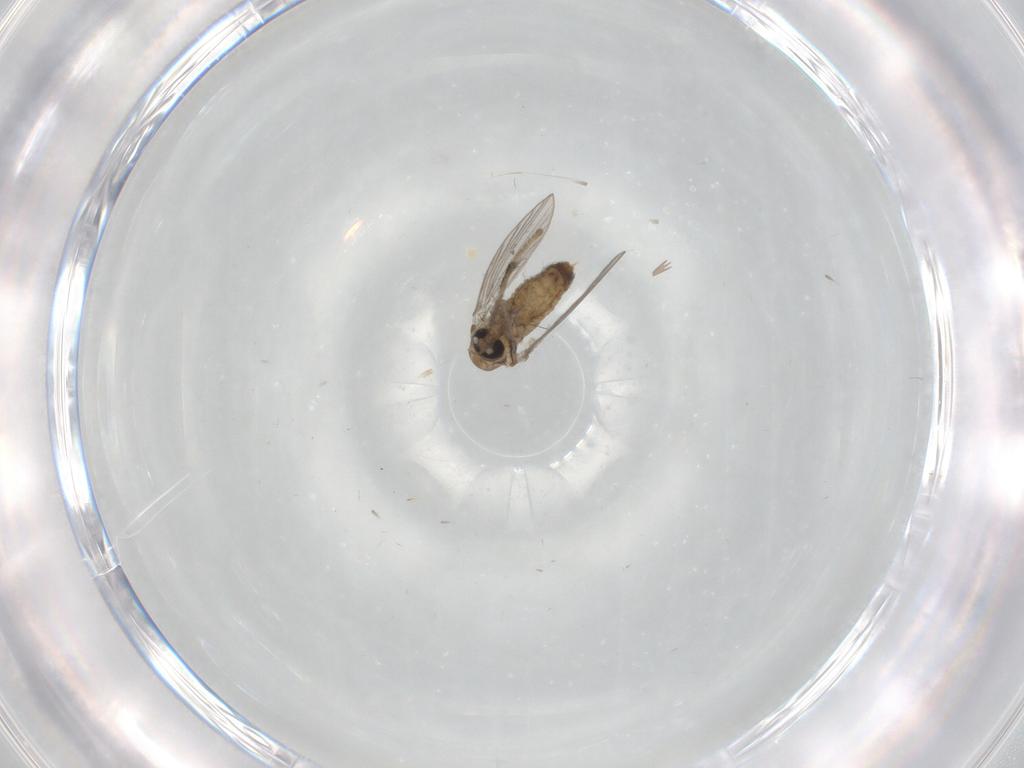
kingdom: Animalia
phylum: Arthropoda
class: Insecta
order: Diptera
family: Psychodidae
